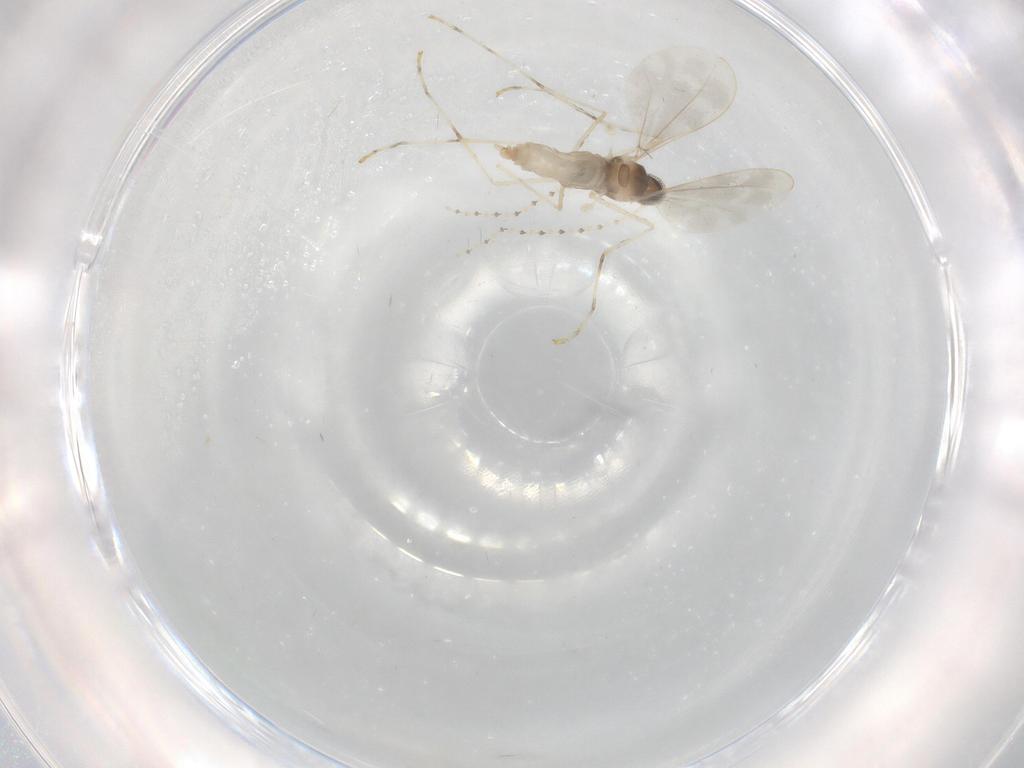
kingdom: Animalia
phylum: Arthropoda
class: Insecta
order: Diptera
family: Cecidomyiidae
